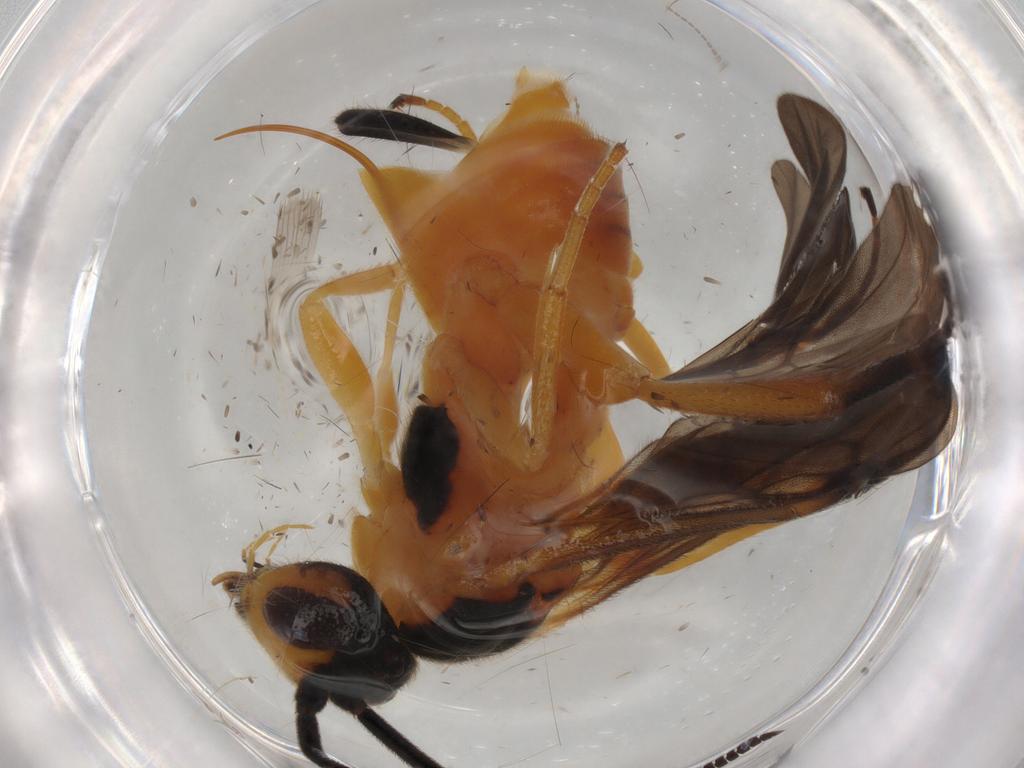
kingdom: Animalia
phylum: Arthropoda
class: Insecta
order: Hymenoptera
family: Braconidae
